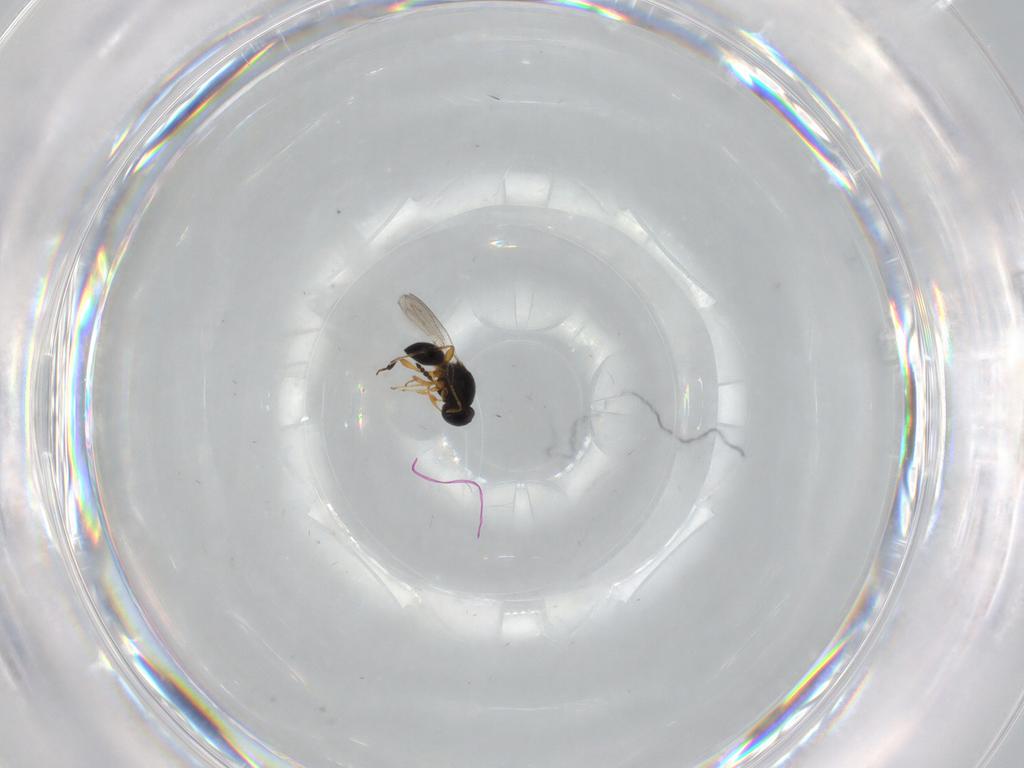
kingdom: Animalia
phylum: Arthropoda
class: Insecta
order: Hymenoptera
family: Platygastridae
